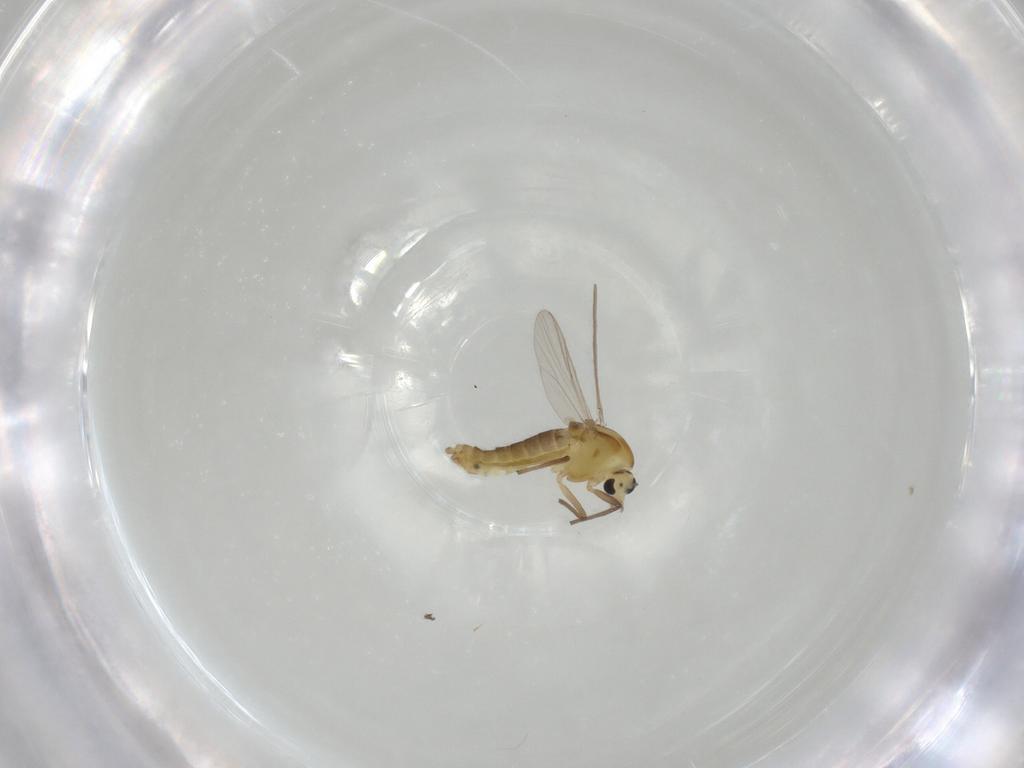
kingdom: Animalia
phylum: Arthropoda
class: Insecta
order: Diptera
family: Chironomidae
